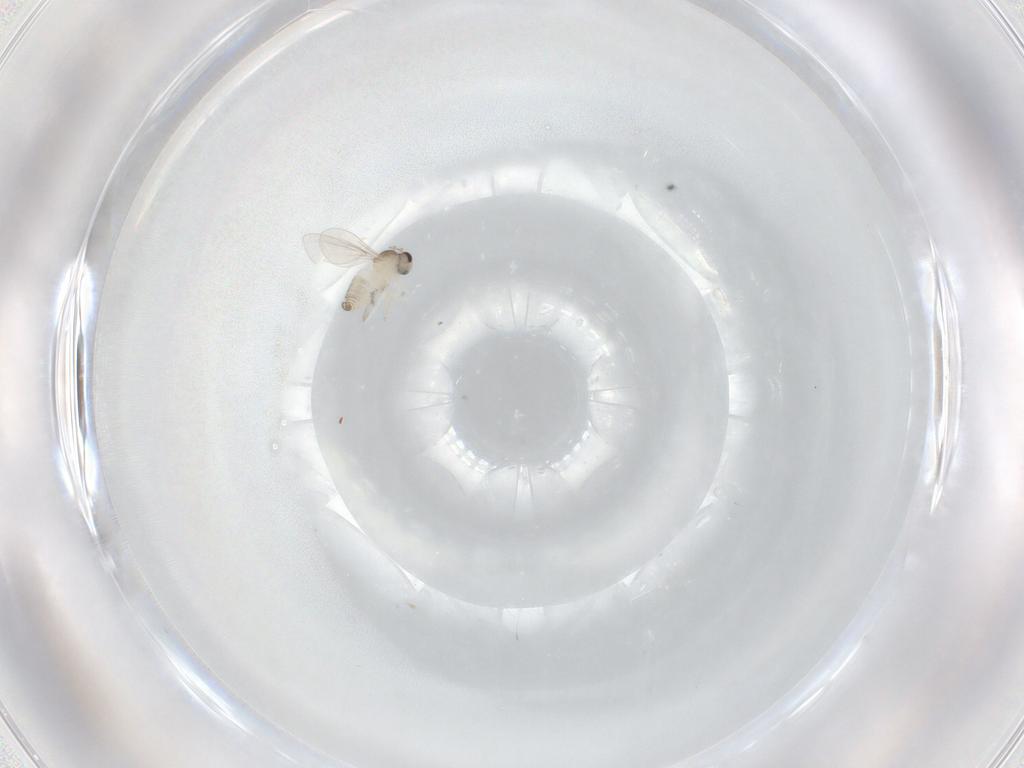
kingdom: Animalia
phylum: Arthropoda
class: Insecta
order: Diptera
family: Cecidomyiidae
